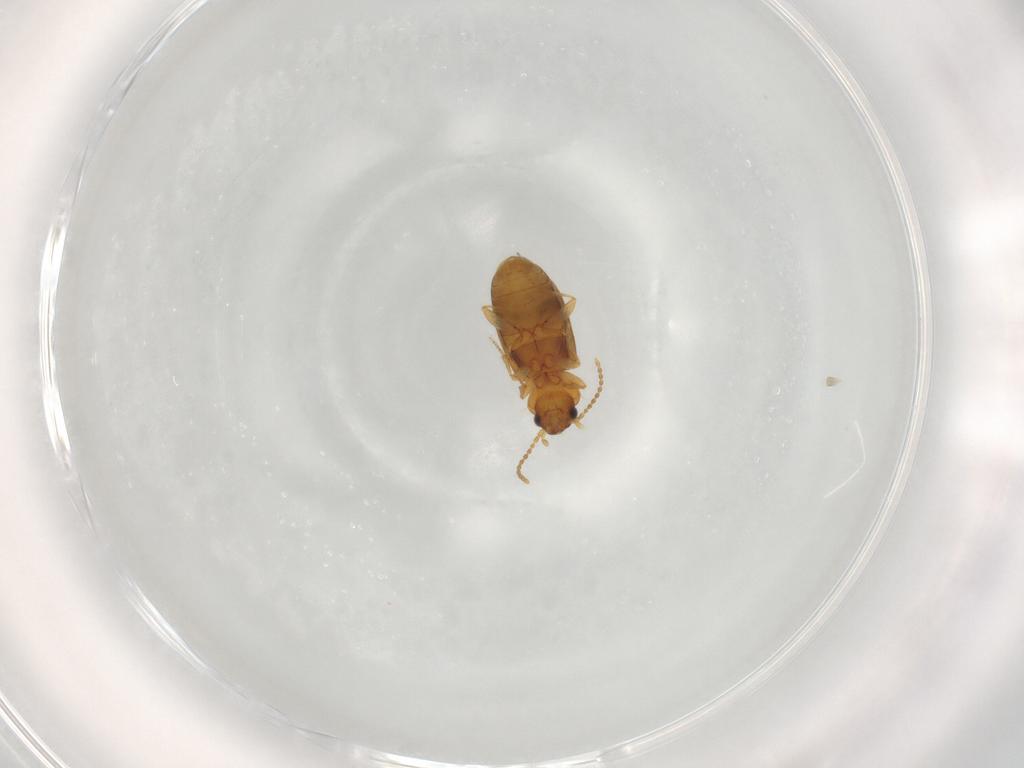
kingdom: Animalia
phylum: Arthropoda
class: Insecta
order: Coleoptera
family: Carabidae
